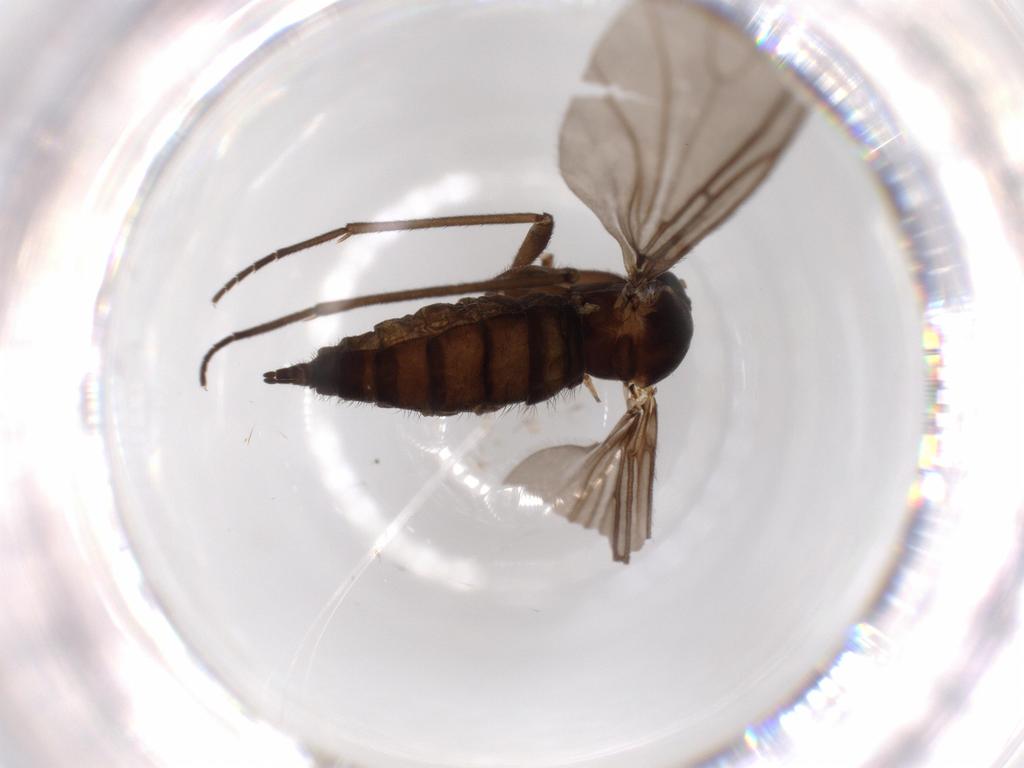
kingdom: Animalia
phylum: Arthropoda
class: Insecta
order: Diptera
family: Sciaridae
